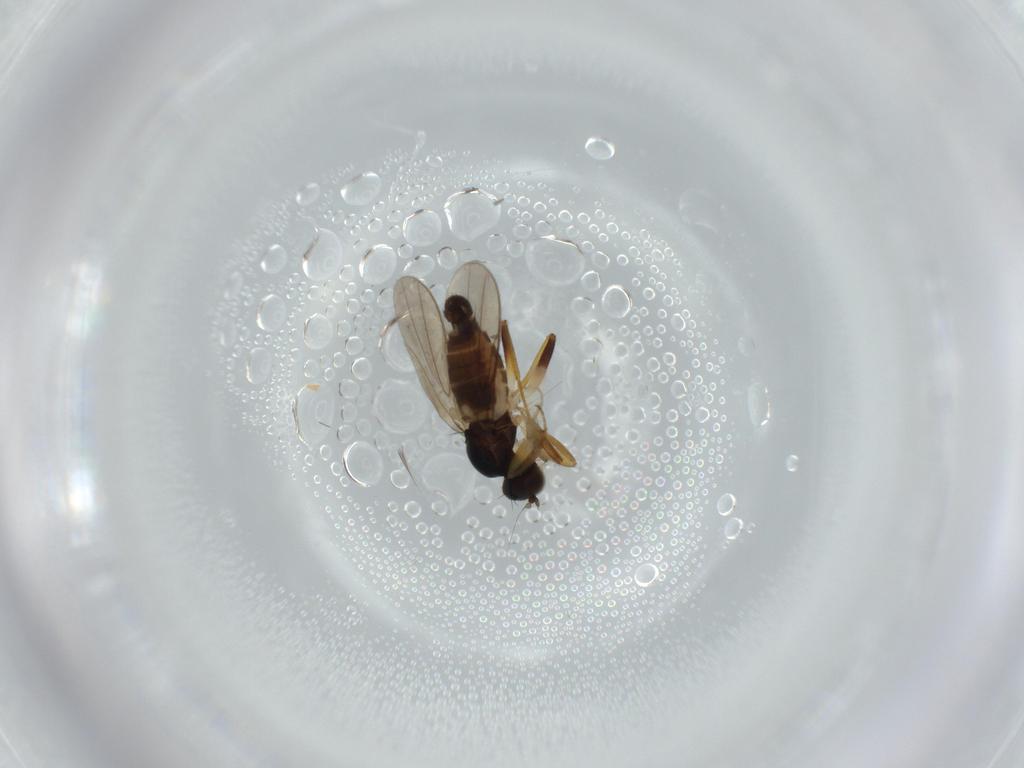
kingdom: Animalia
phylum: Arthropoda
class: Insecta
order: Diptera
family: Hybotidae
